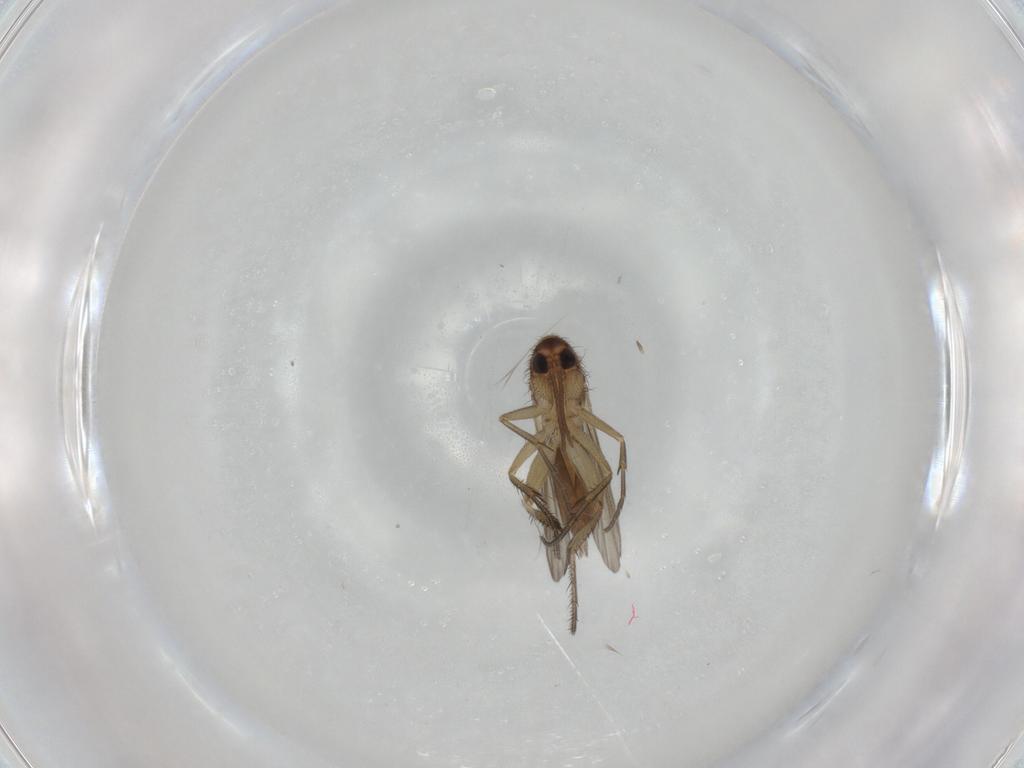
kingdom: Animalia
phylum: Arthropoda
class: Insecta
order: Diptera
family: Mycetophilidae
